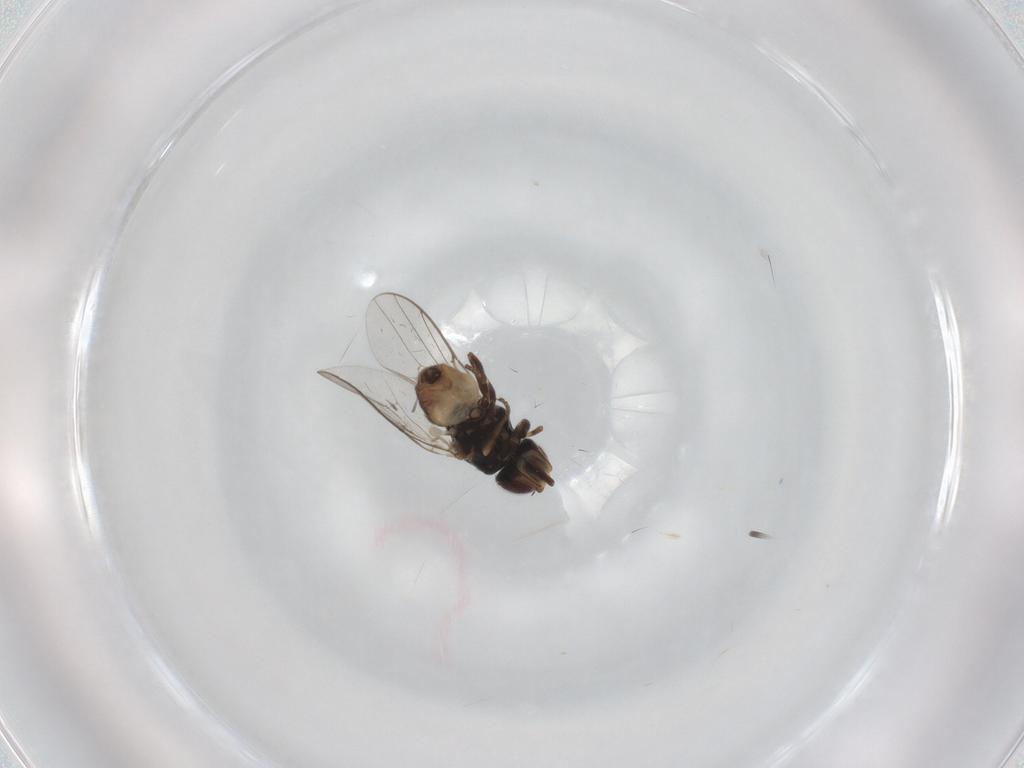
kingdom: Animalia
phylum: Arthropoda
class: Insecta
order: Diptera
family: Chloropidae
